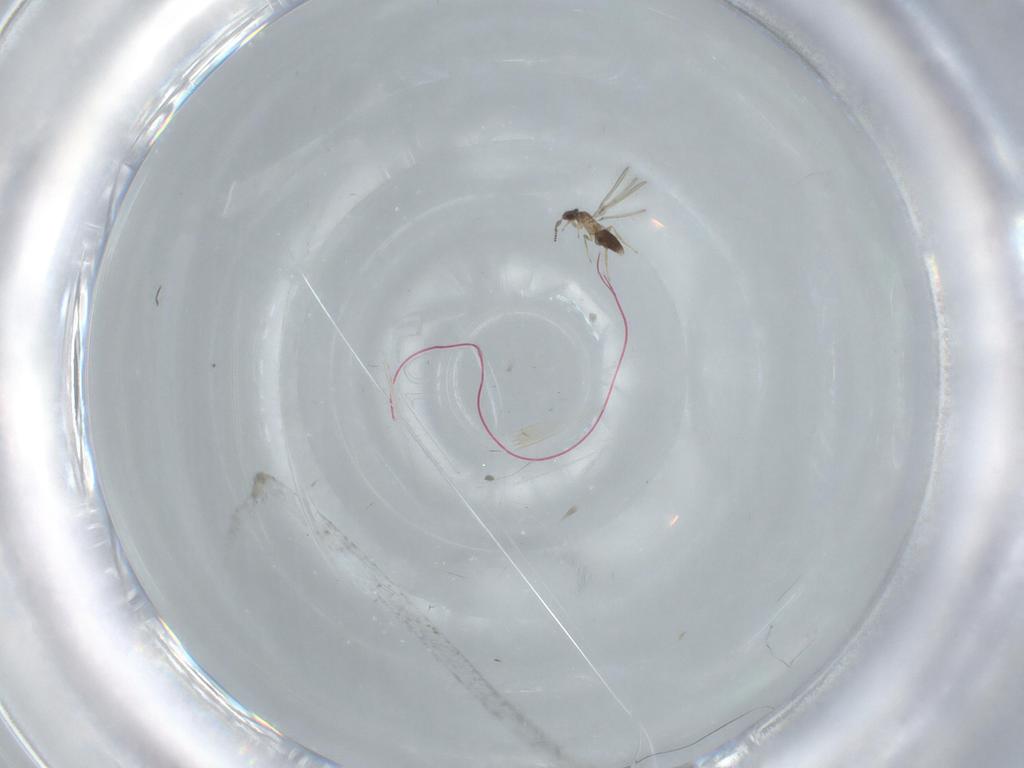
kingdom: Animalia
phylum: Arthropoda
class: Insecta
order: Hymenoptera
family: Mymaridae
